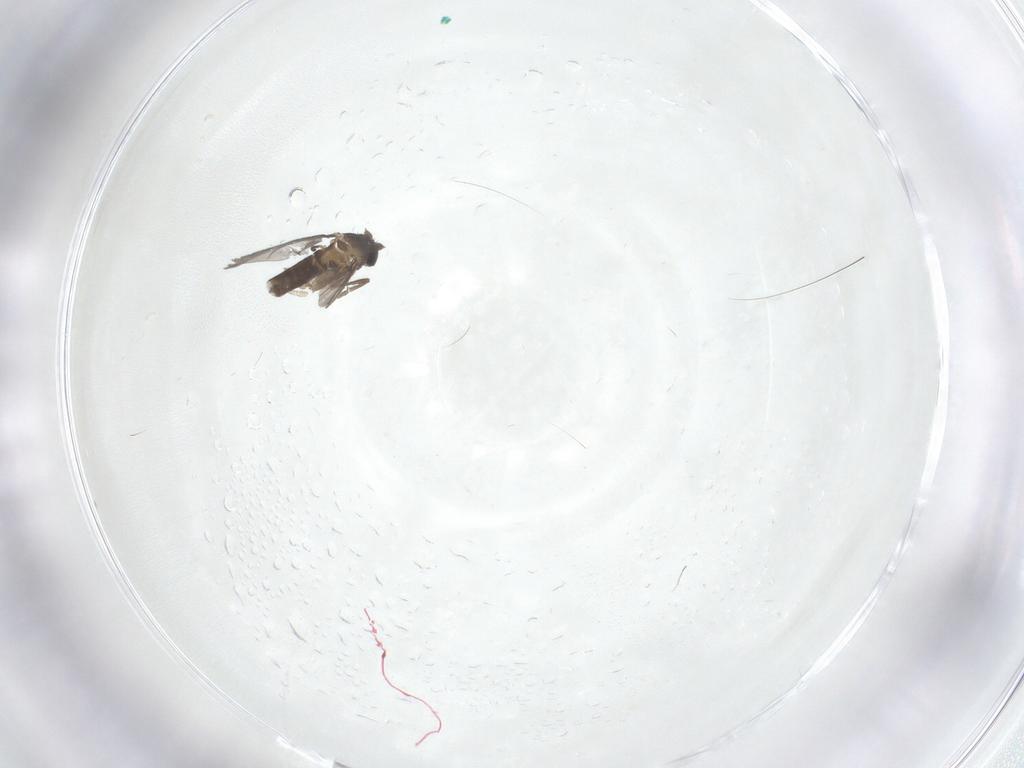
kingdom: Animalia
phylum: Arthropoda
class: Insecta
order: Diptera
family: Phoridae
